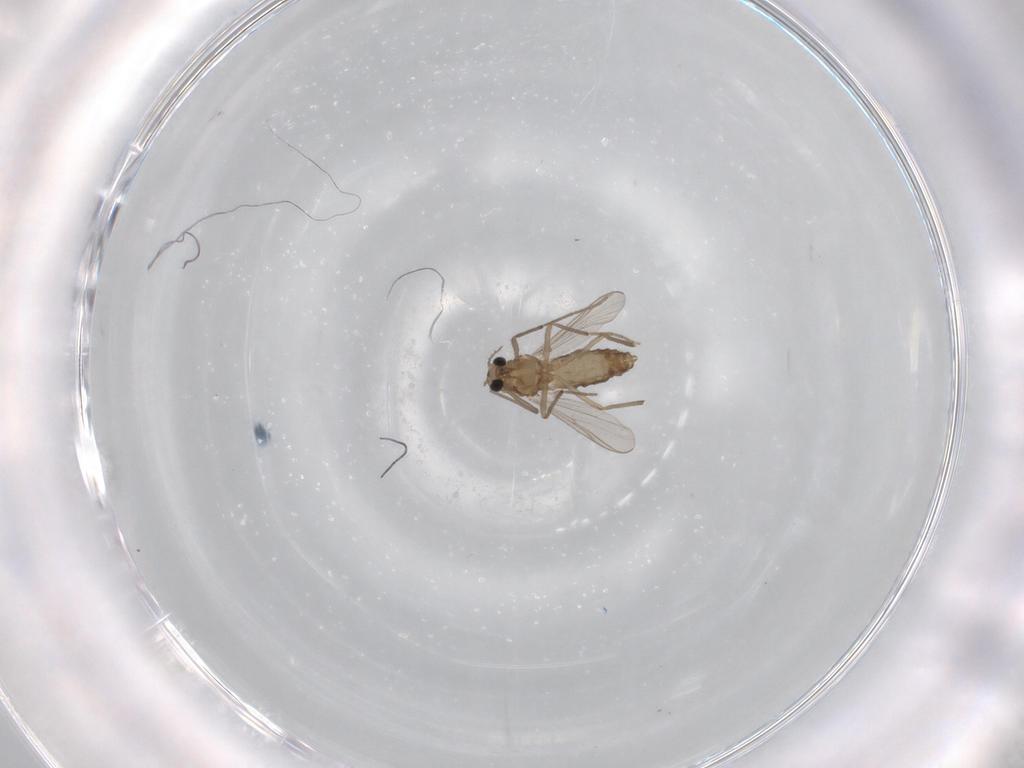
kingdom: Animalia
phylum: Arthropoda
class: Insecta
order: Diptera
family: Chironomidae
